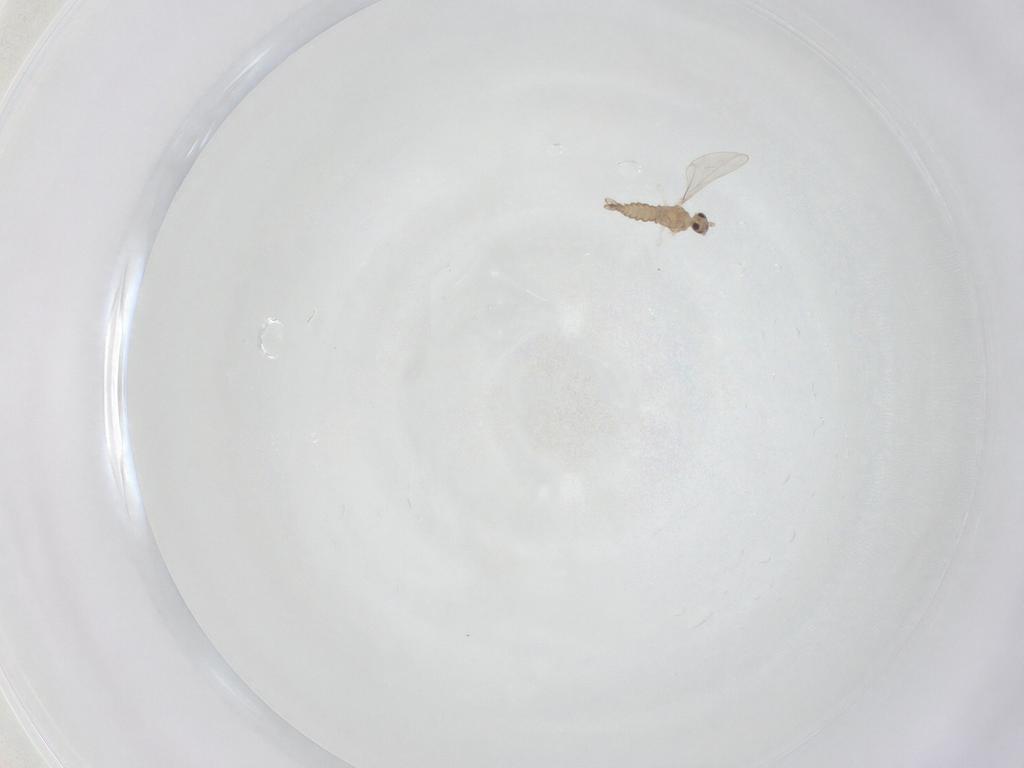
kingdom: Animalia
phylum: Arthropoda
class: Insecta
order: Diptera
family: Cecidomyiidae
